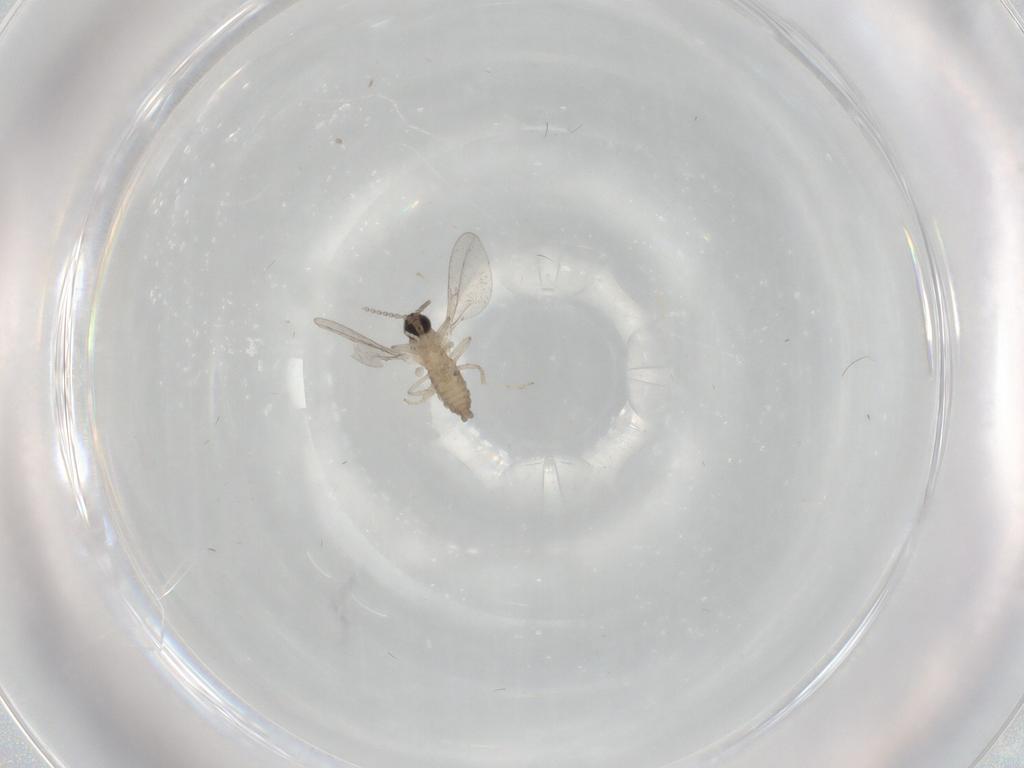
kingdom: Animalia
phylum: Arthropoda
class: Insecta
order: Diptera
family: Cecidomyiidae
